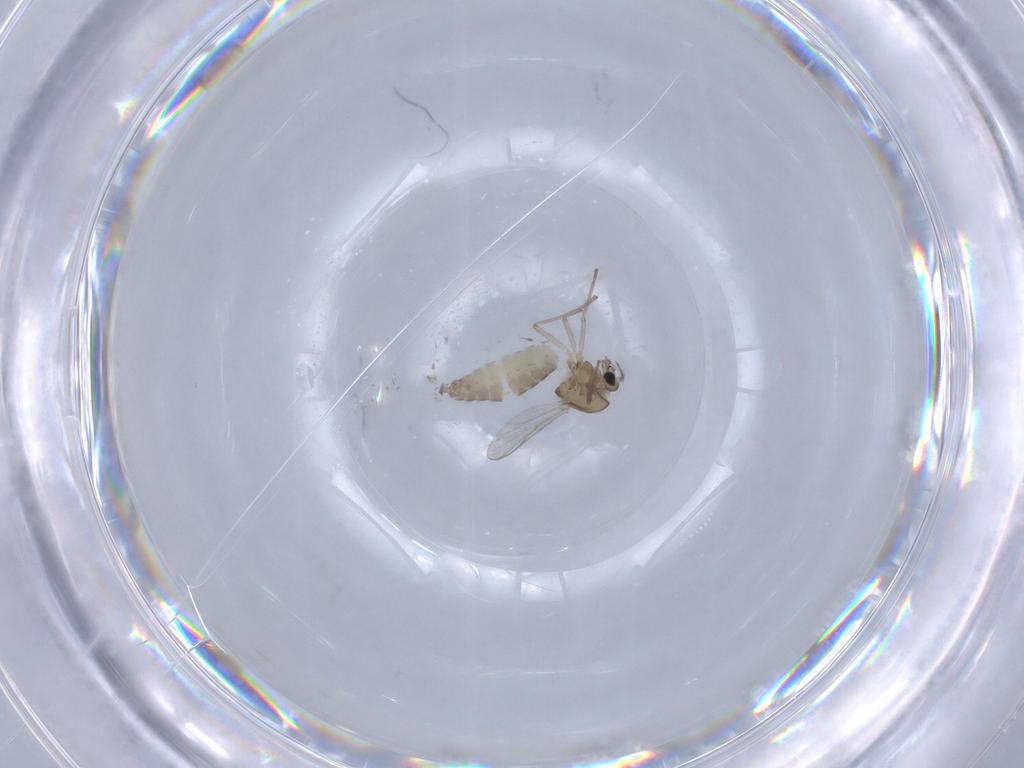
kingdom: Animalia
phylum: Arthropoda
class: Insecta
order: Diptera
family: Chironomidae
